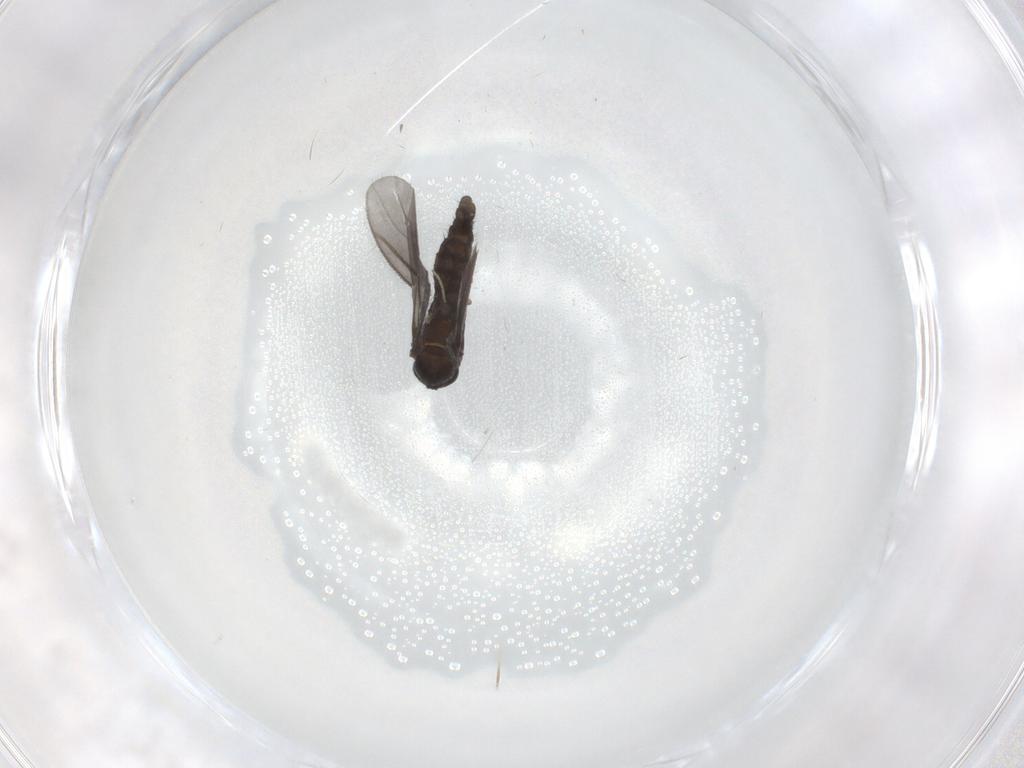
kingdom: Animalia
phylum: Arthropoda
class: Insecta
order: Diptera
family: Sciaridae
